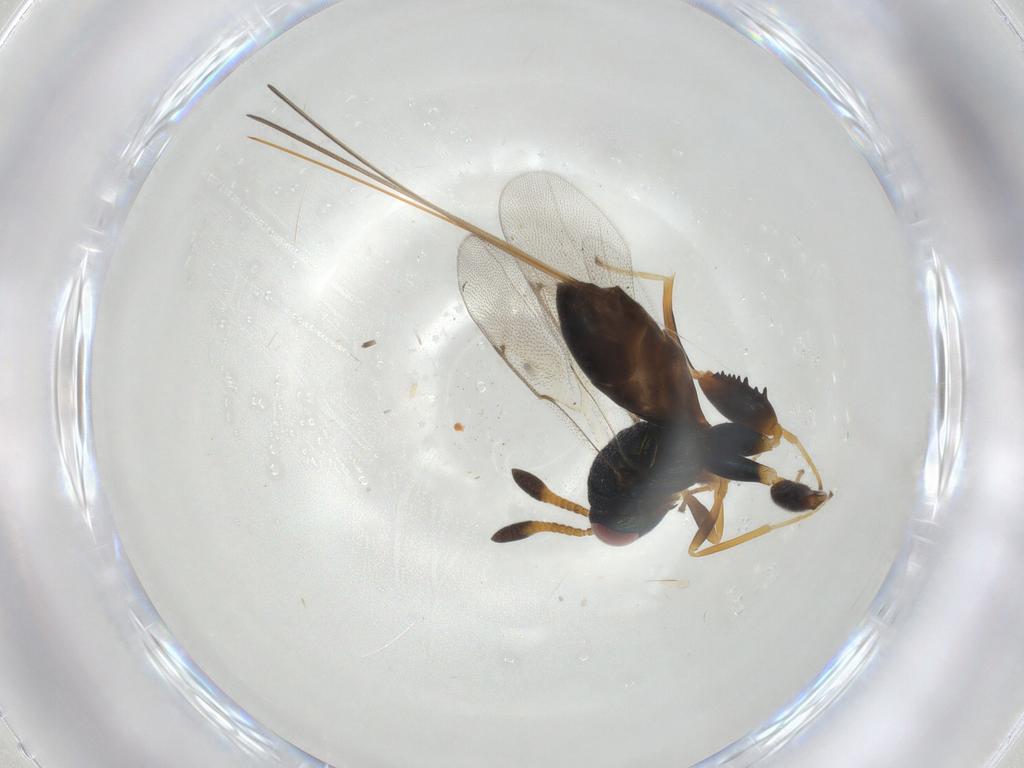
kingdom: Animalia
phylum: Arthropoda
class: Insecta
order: Hymenoptera
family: Torymidae
